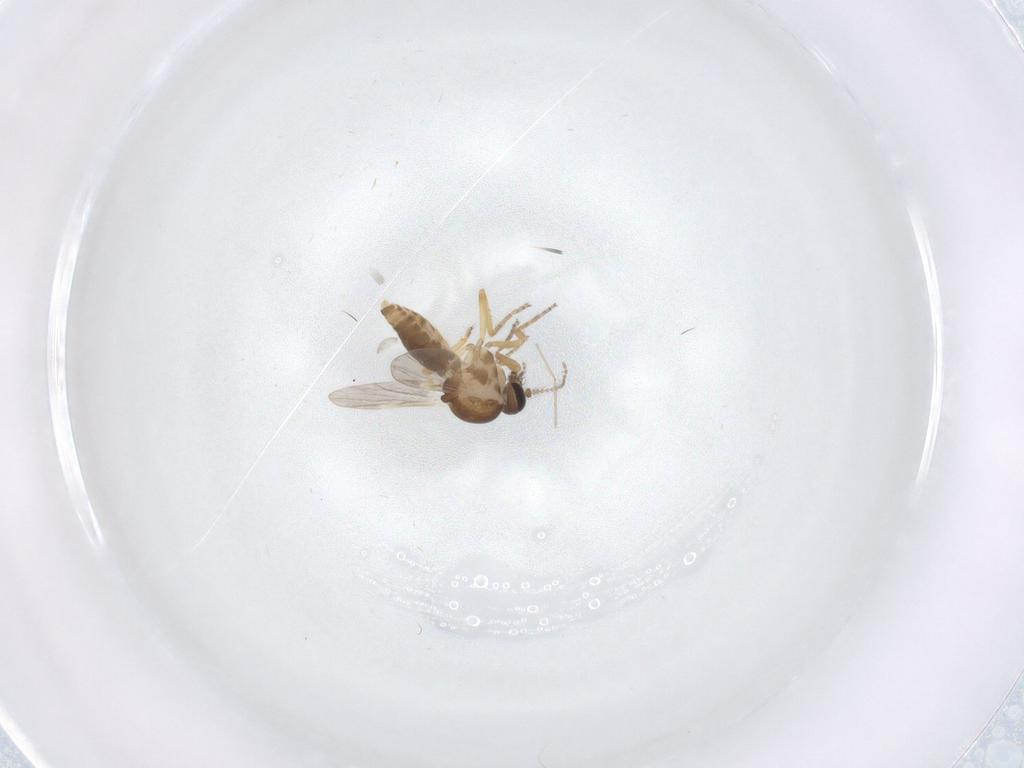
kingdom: Animalia
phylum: Arthropoda
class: Insecta
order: Diptera
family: Ceratopogonidae
